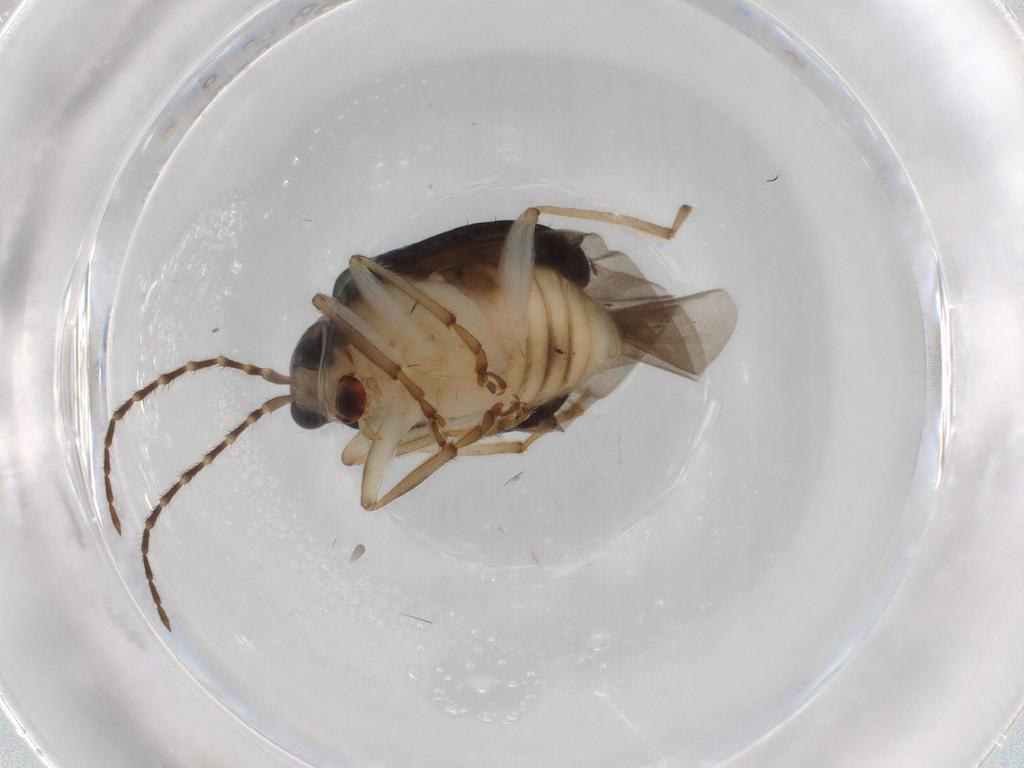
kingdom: Animalia
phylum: Arthropoda
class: Insecta
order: Coleoptera
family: Chrysomelidae
